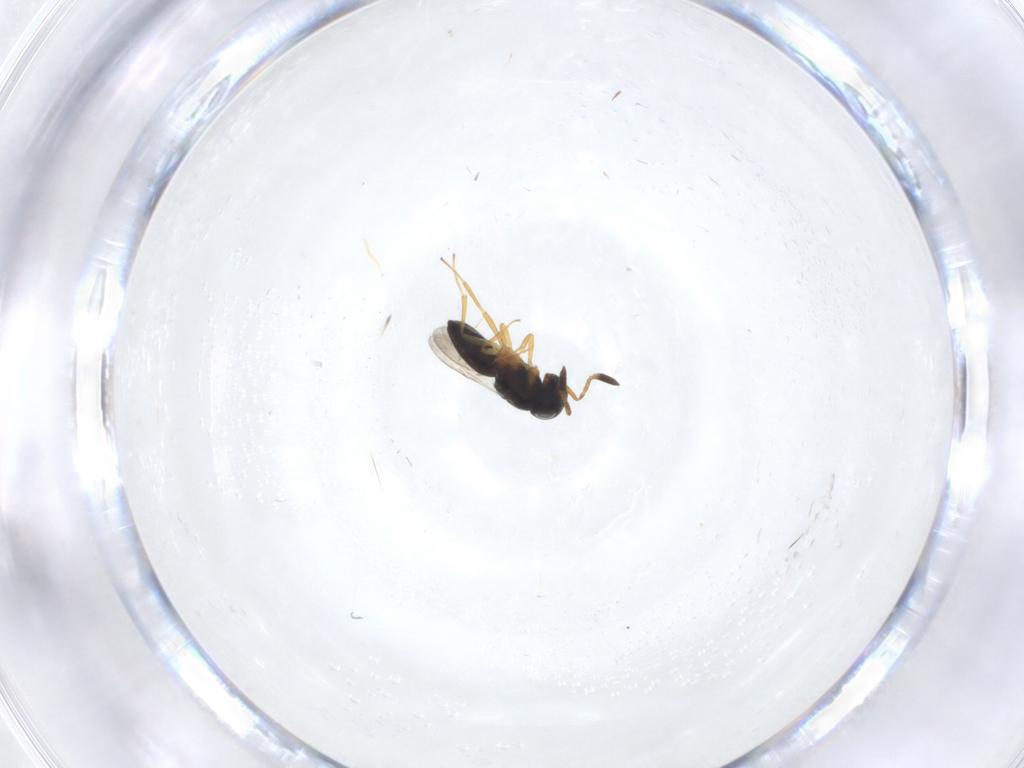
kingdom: Animalia
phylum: Arthropoda
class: Insecta
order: Hymenoptera
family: Scelionidae
